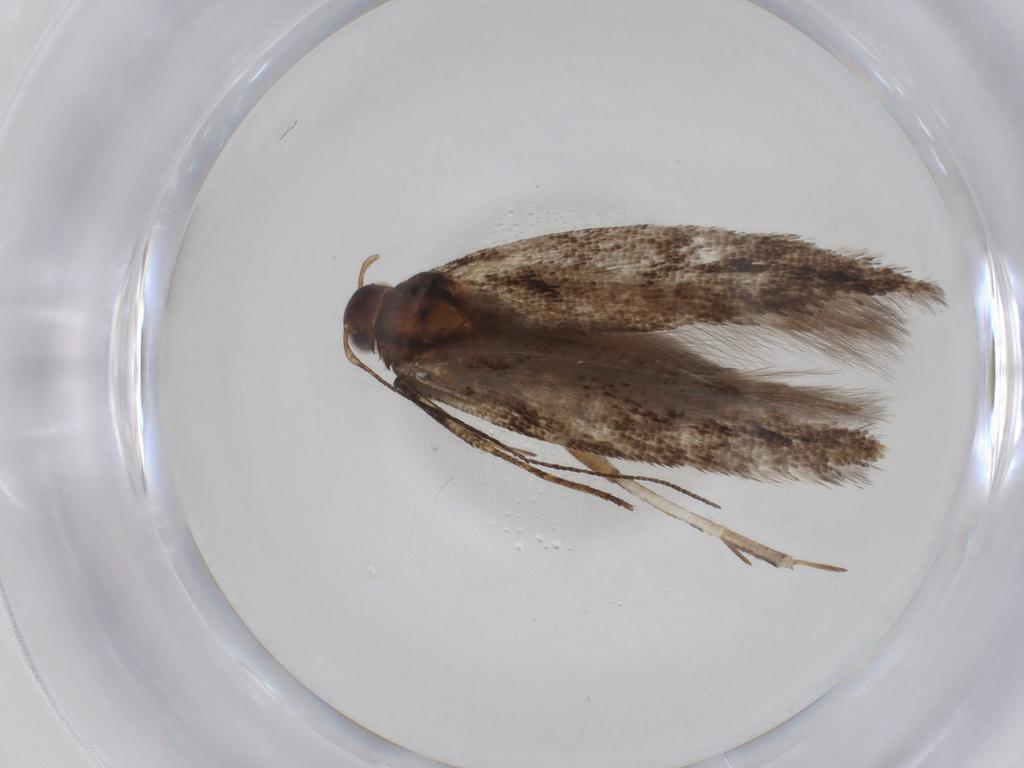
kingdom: Animalia
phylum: Arthropoda
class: Insecta
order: Lepidoptera
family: Gelechiidae
